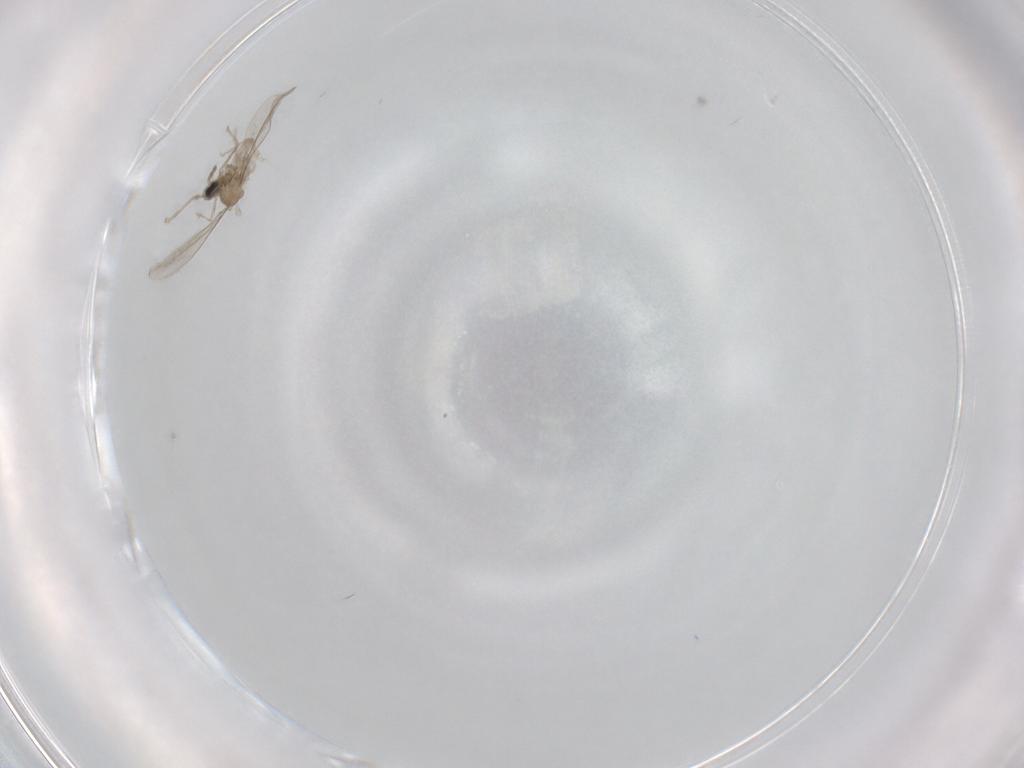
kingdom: Animalia
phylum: Arthropoda
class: Insecta
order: Diptera
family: Cecidomyiidae
